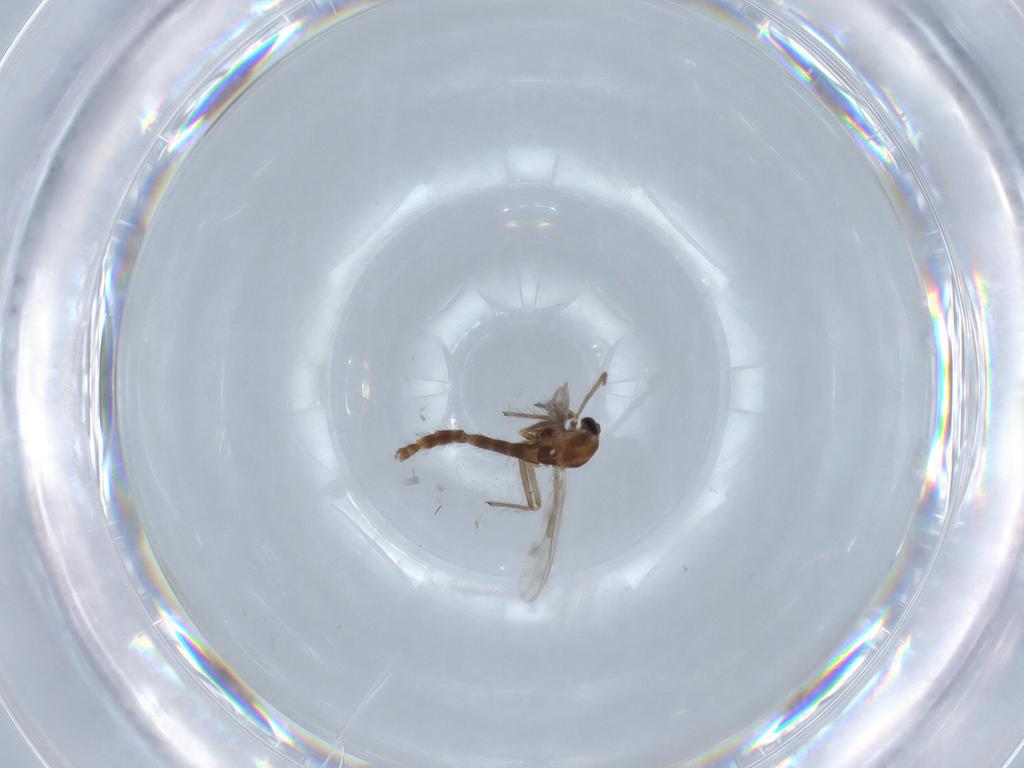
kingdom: Animalia
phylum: Arthropoda
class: Insecta
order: Diptera
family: Chironomidae
